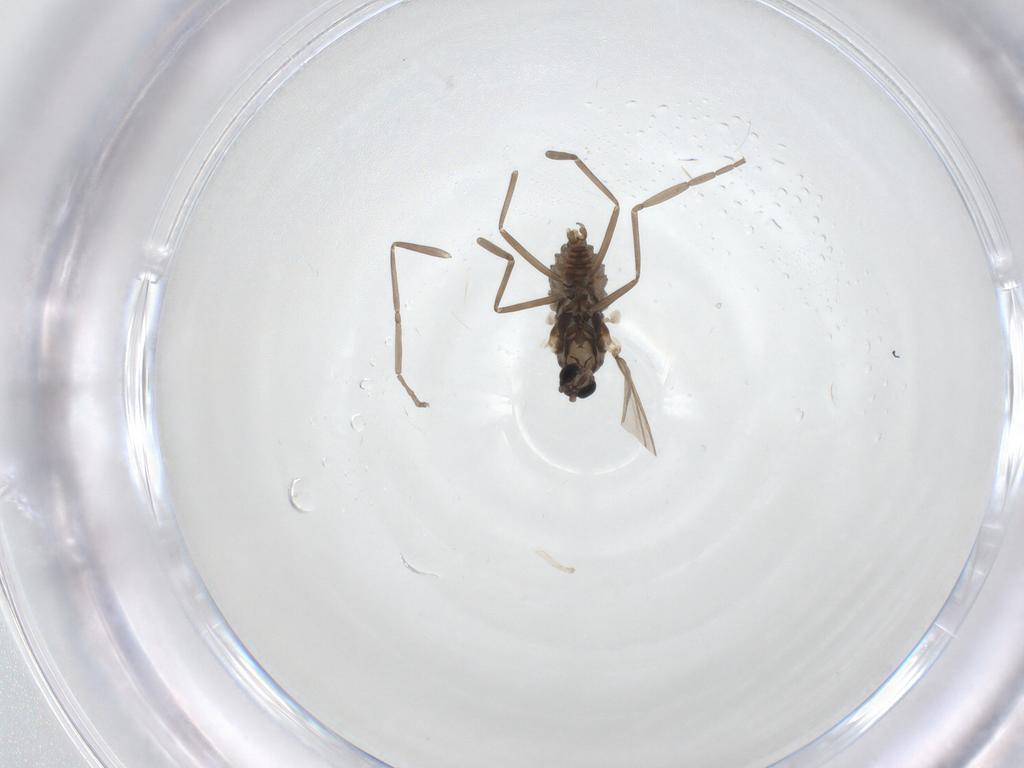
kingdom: Animalia
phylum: Arthropoda
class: Insecta
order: Diptera
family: Cecidomyiidae
